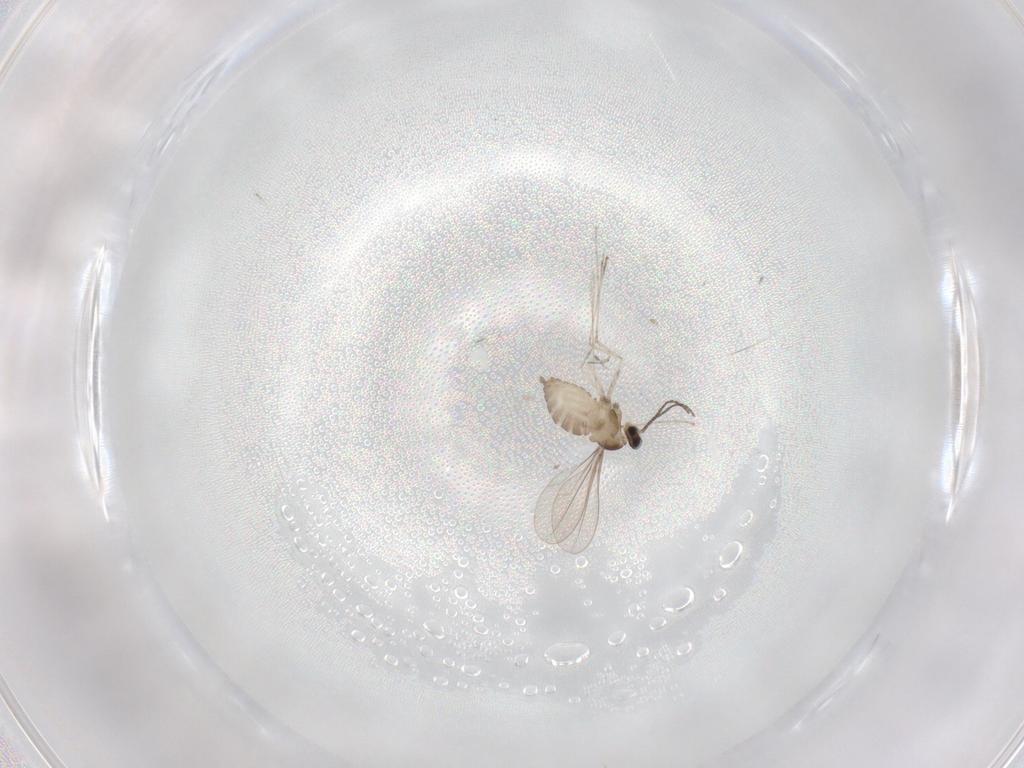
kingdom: Animalia
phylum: Arthropoda
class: Insecta
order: Diptera
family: Cecidomyiidae
